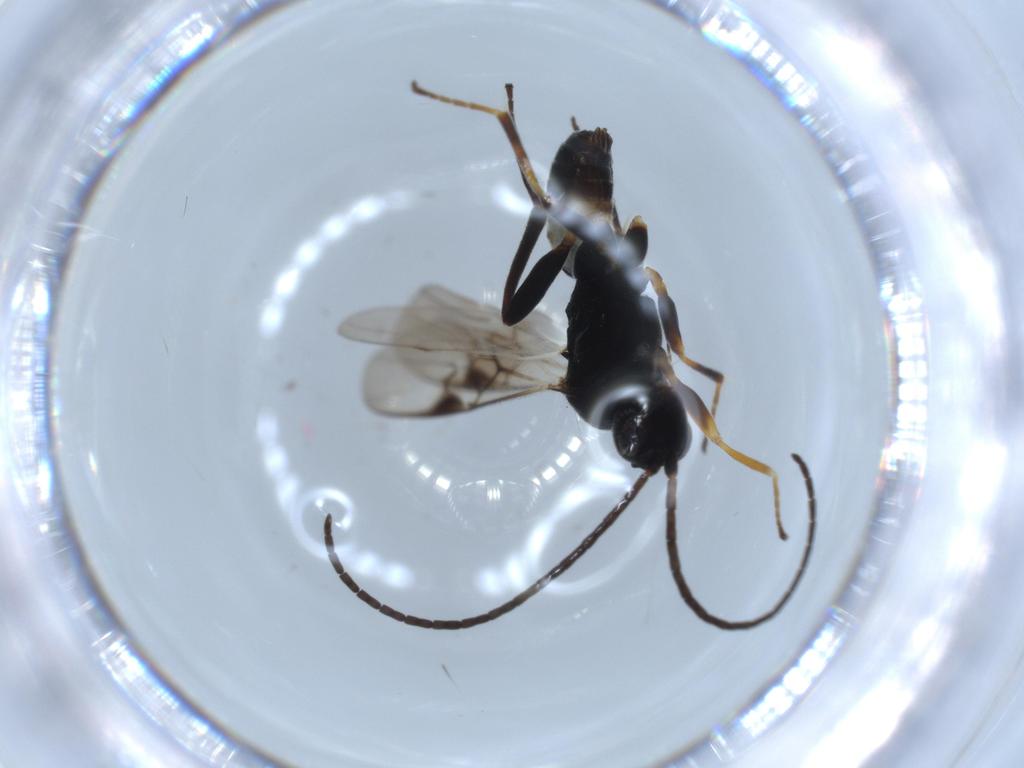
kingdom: Animalia
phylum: Arthropoda
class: Insecta
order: Hymenoptera
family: Braconidae
